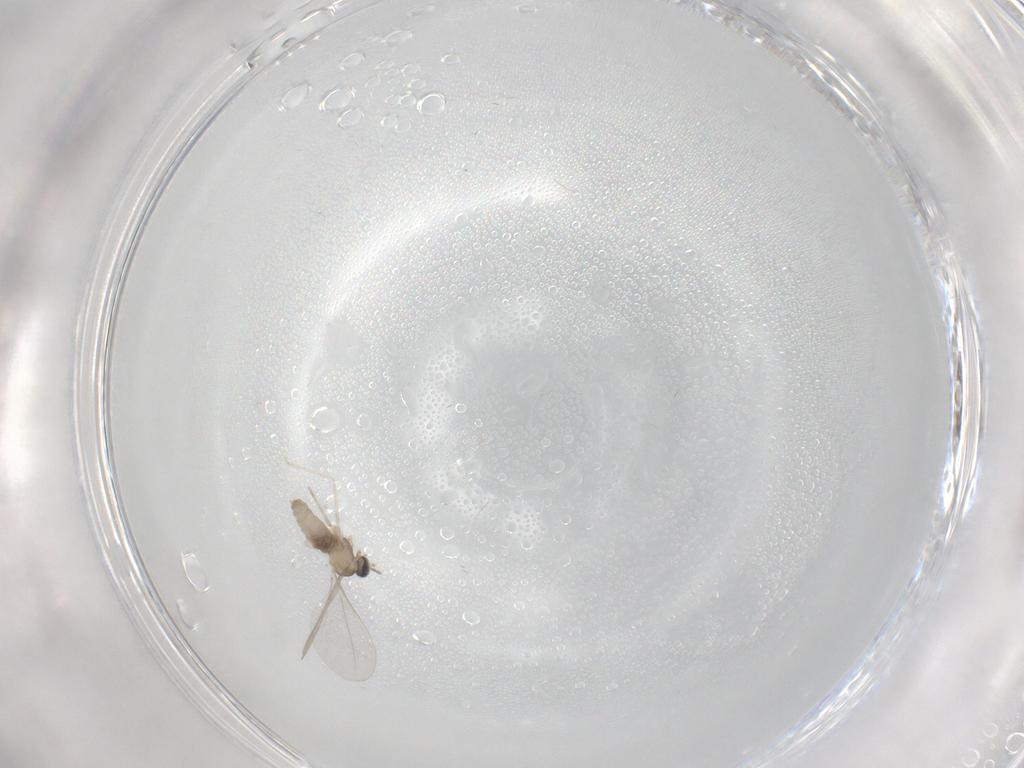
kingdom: Animalia
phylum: Arthropoda
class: Insecta
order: Diptera
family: Cecidomyiidae
